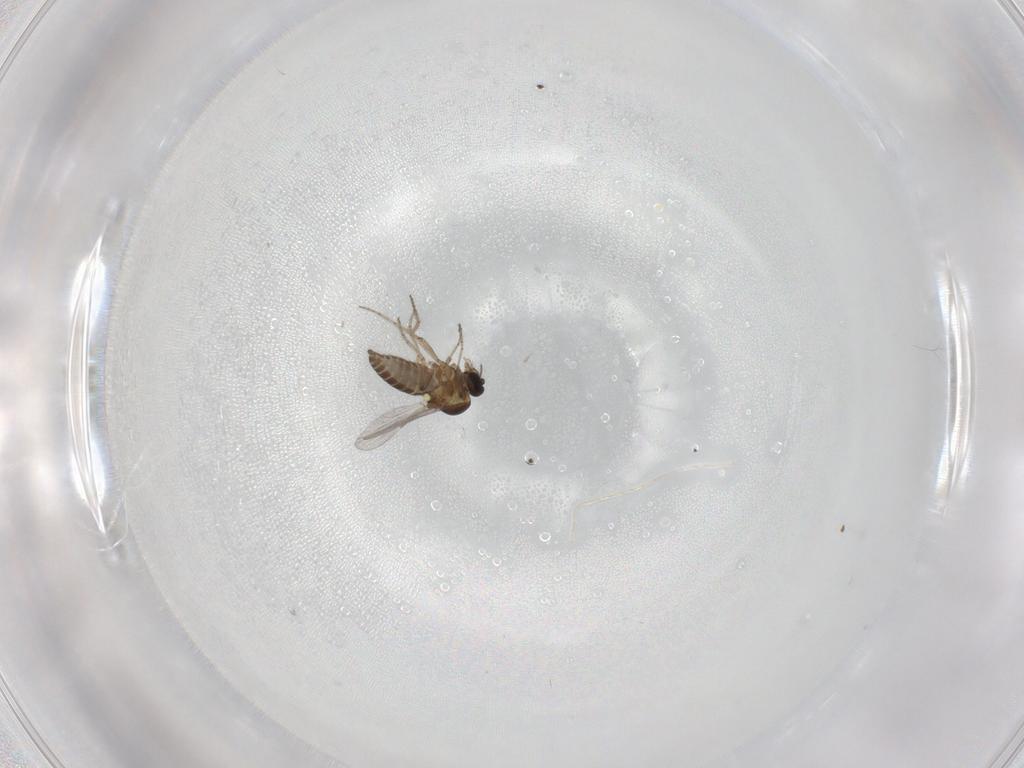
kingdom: Animalia
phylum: Arthropoda
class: Insecta
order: Diptera
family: Ceratopogonidae
